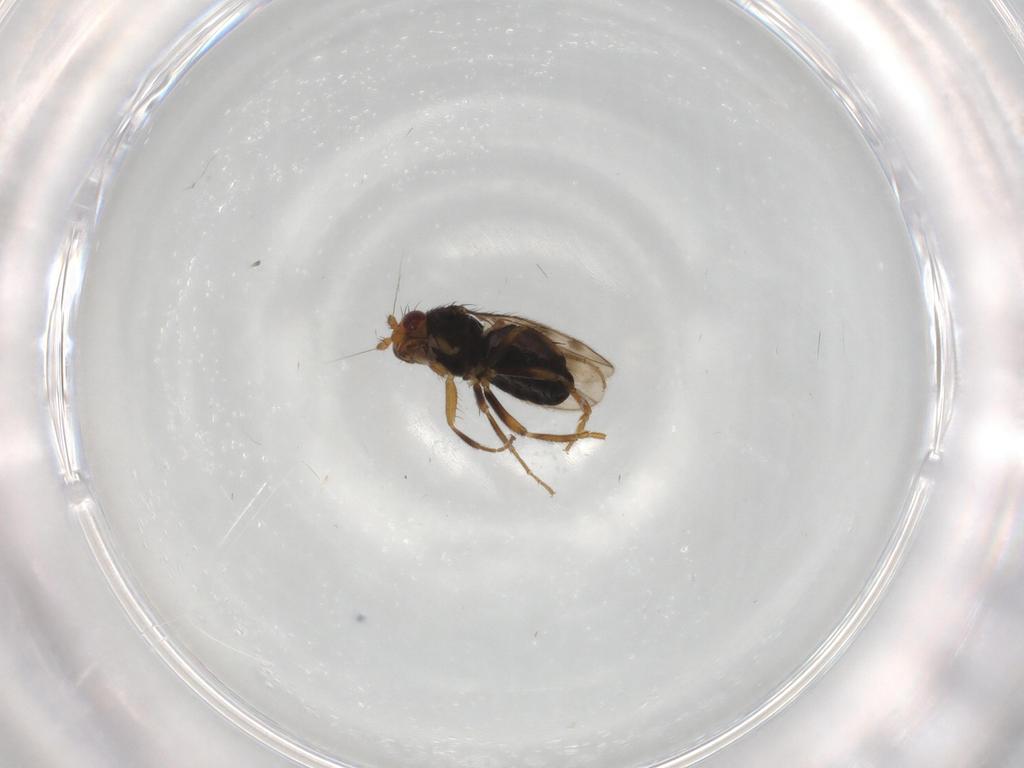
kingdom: Animalia
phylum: Arthropoda
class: Insecta
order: Diptera
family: Sphaeroceridae
